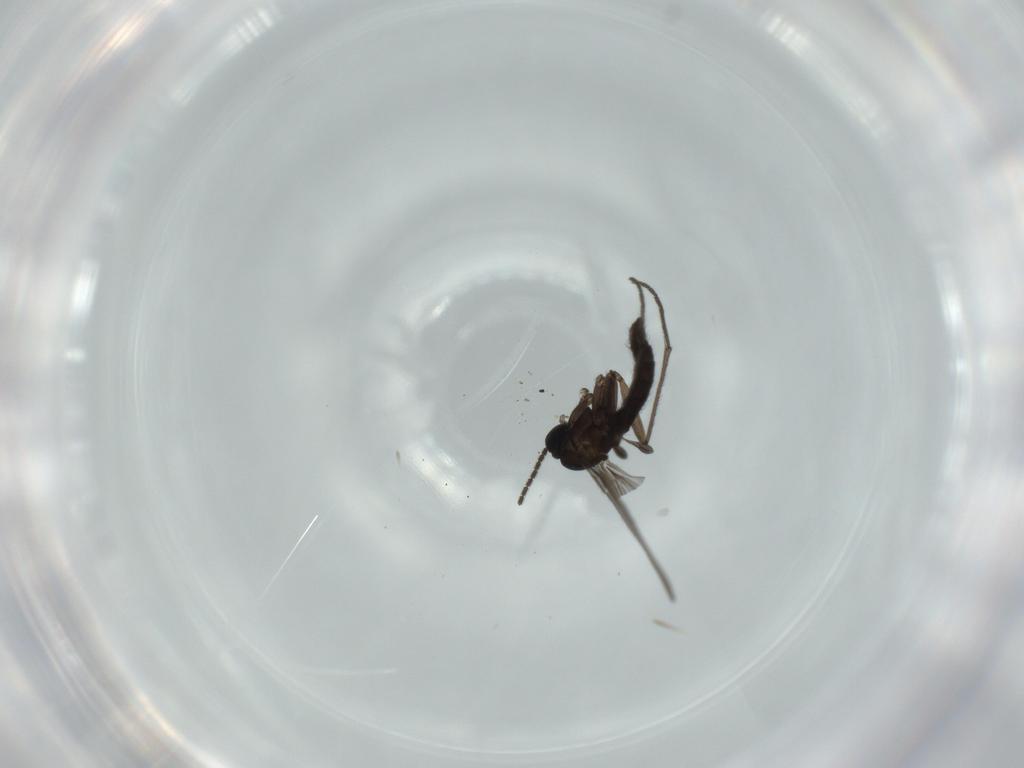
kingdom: Animalia
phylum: Arthropoda
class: Insecta
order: Diptera
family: Sciaridae
